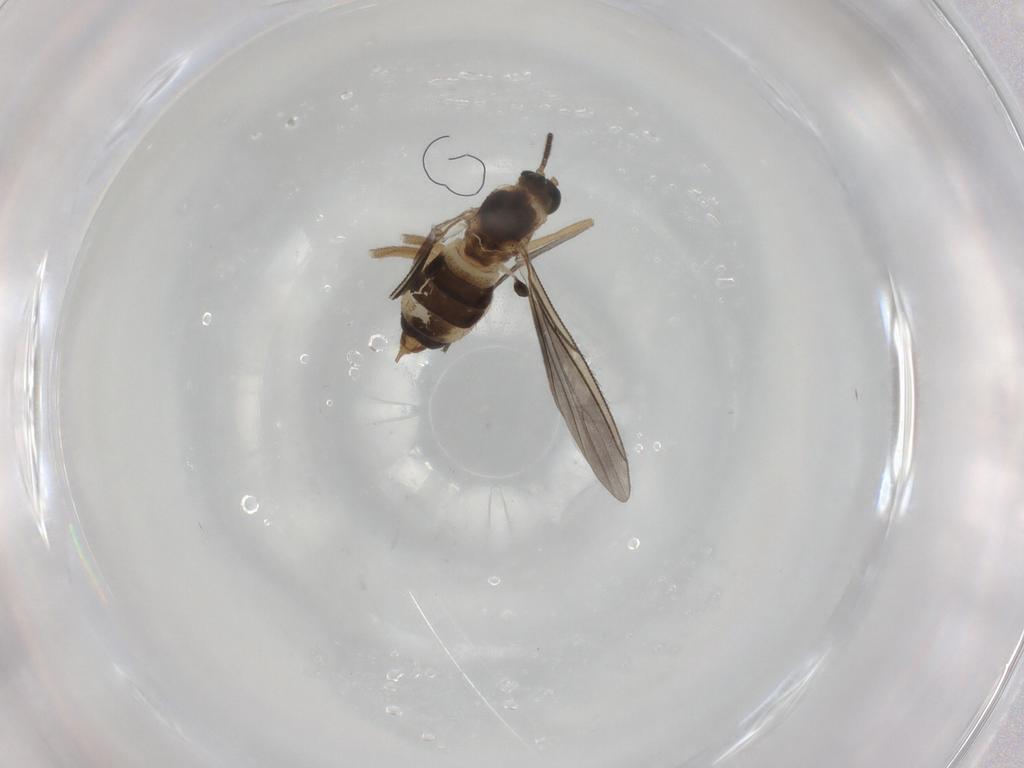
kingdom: Animalia
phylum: Arthropoda
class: Insecta
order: Diptera
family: Sciaridae
